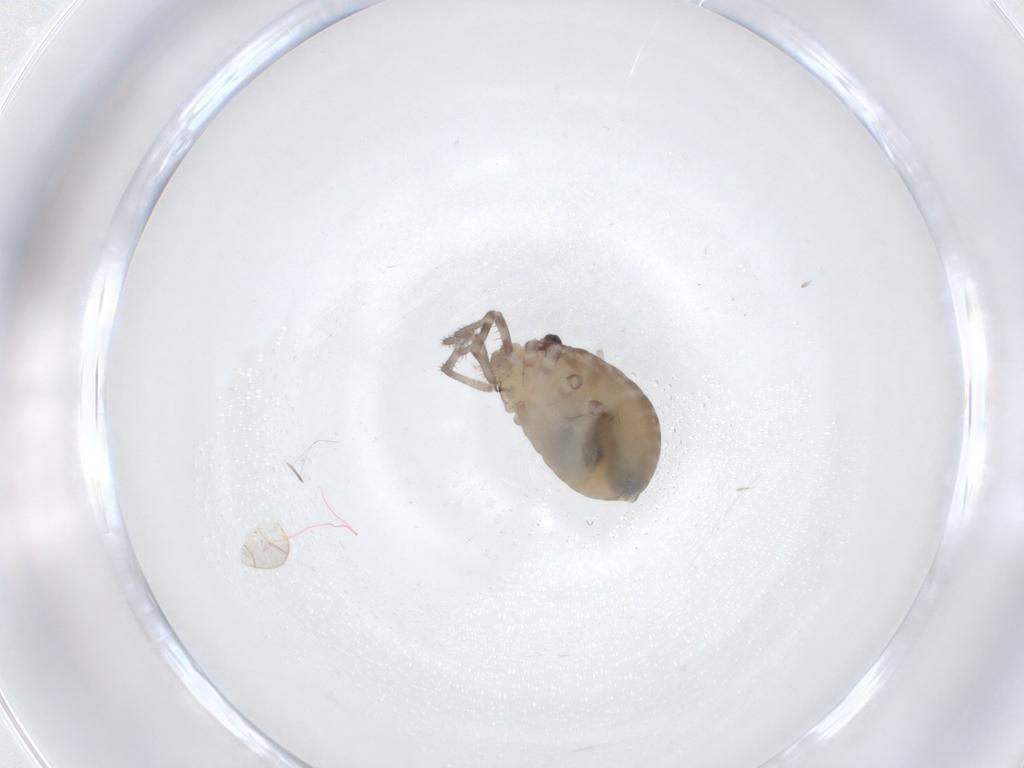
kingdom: Animalia
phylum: Arthropoda
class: Arachnida
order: Opiliones
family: Sclerosomatidae
